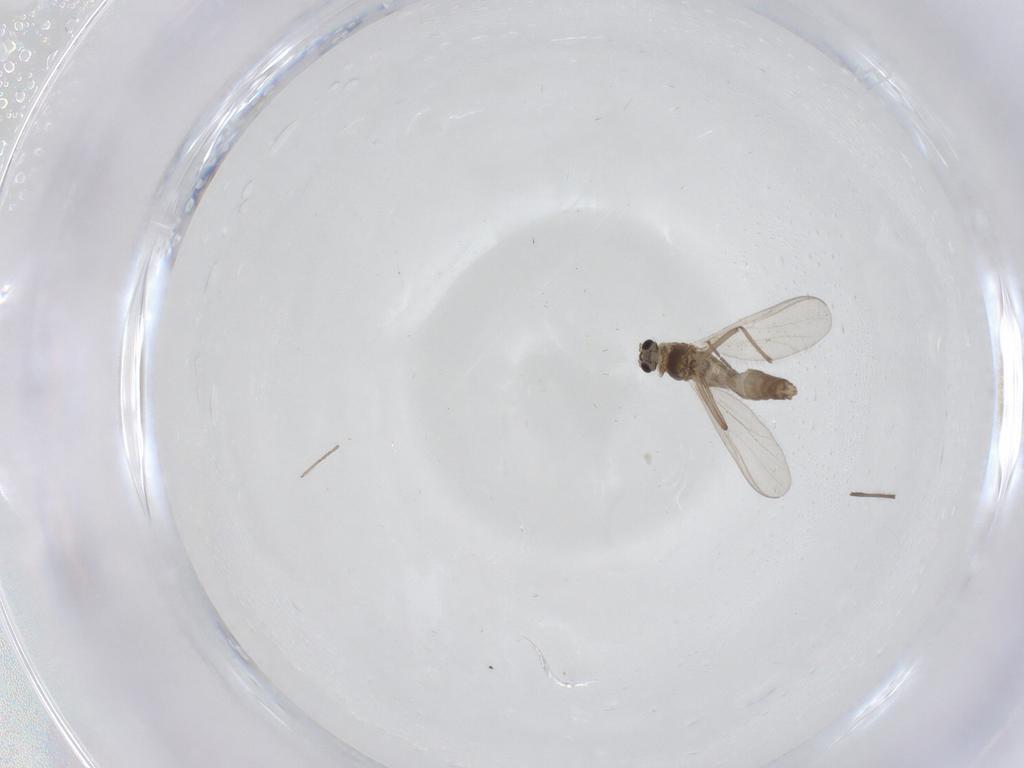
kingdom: Animalia
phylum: Arthropoda
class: Insecta
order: Diptera
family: Chironomidae
